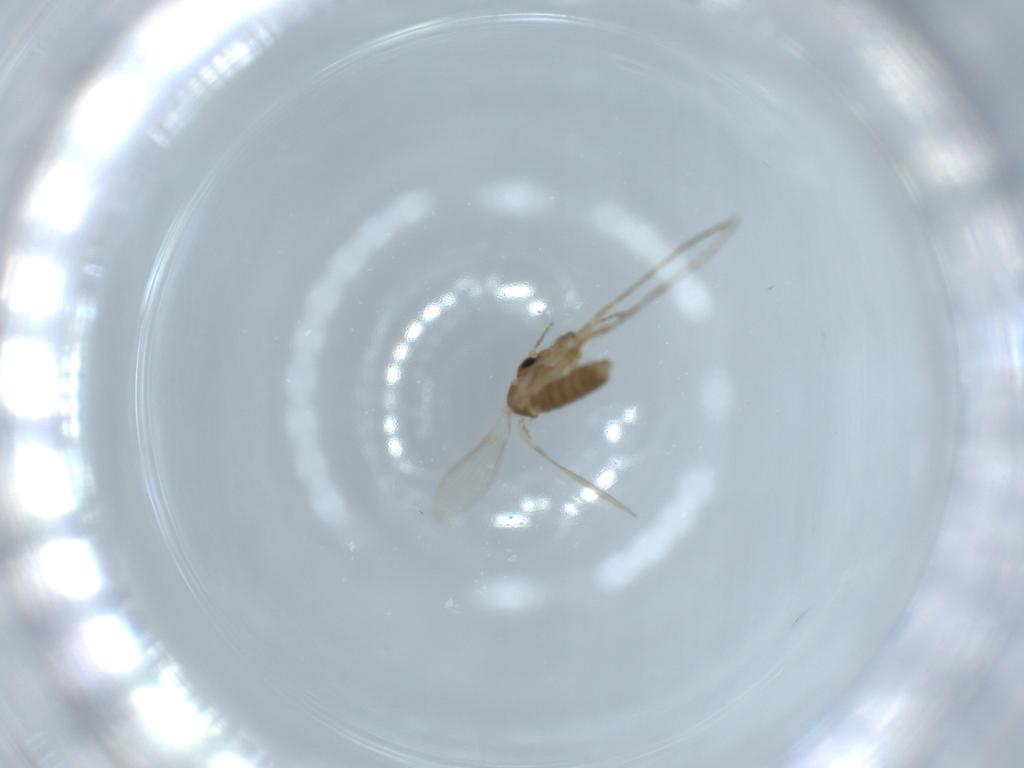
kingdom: Animalia
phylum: Arthropoda
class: Insecta
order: Diptera
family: Psychodidae
